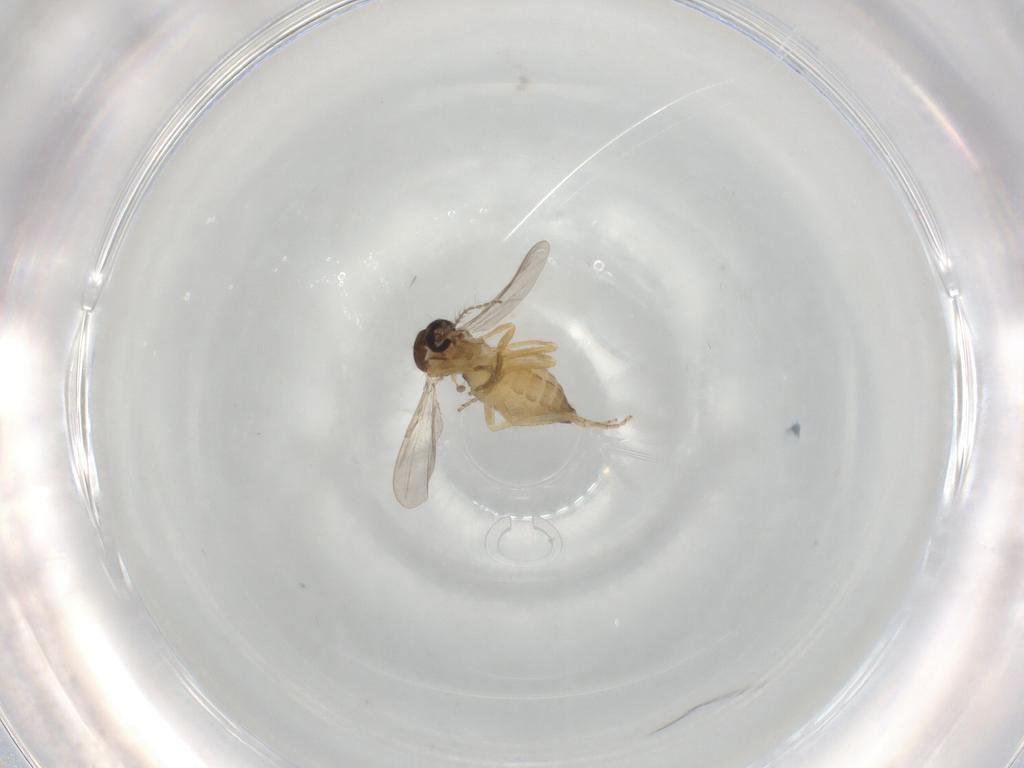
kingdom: Animalia
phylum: Arthropoda
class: Insecta
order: Diptera
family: Ceratopogonidae
